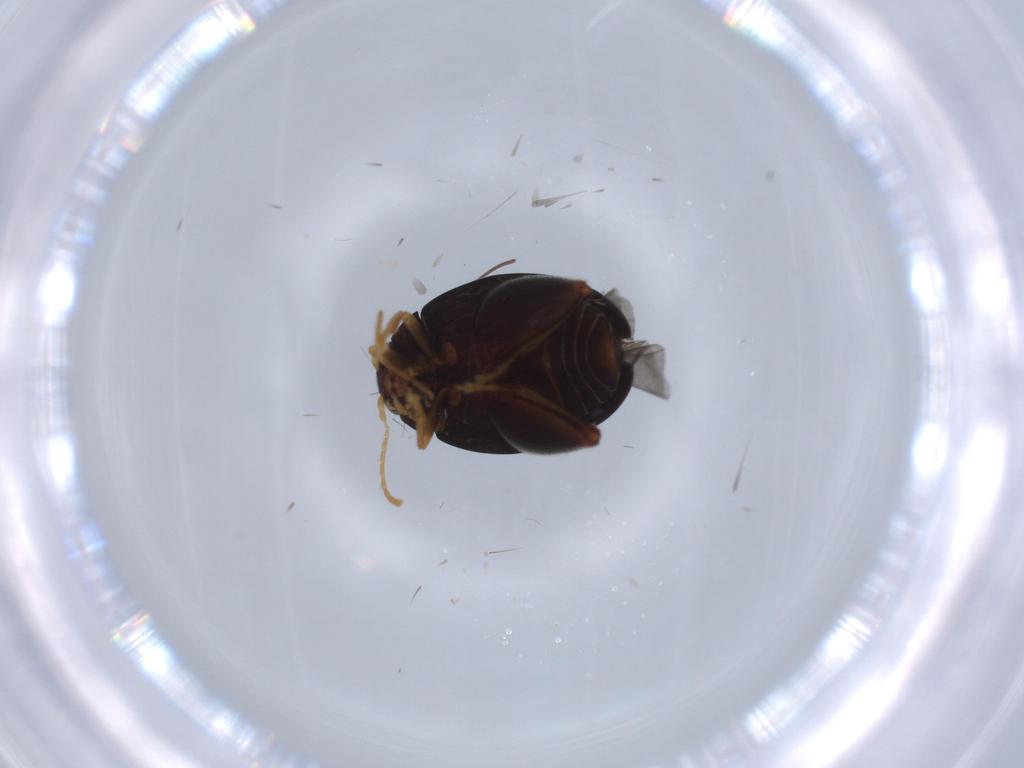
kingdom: Animalia
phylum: Arthropoda
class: Insecta
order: Coleoptera
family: Chrysomelidae
